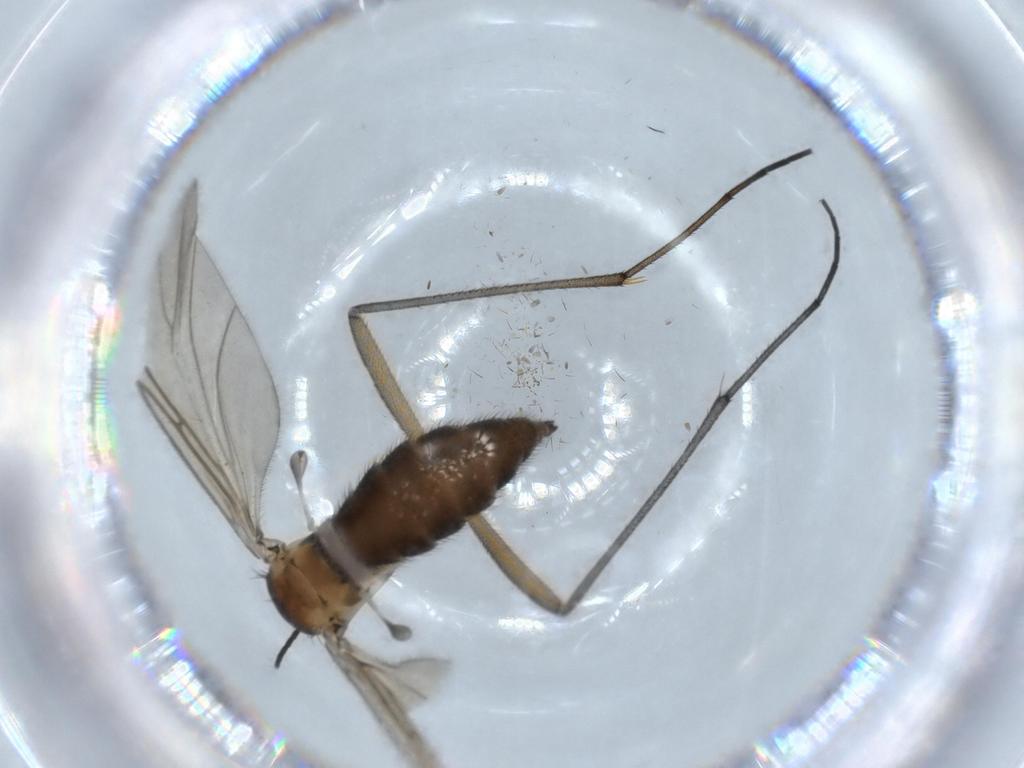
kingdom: Animalia
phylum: Arthropoda
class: Insecta
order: Diptera
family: Sciaridae
